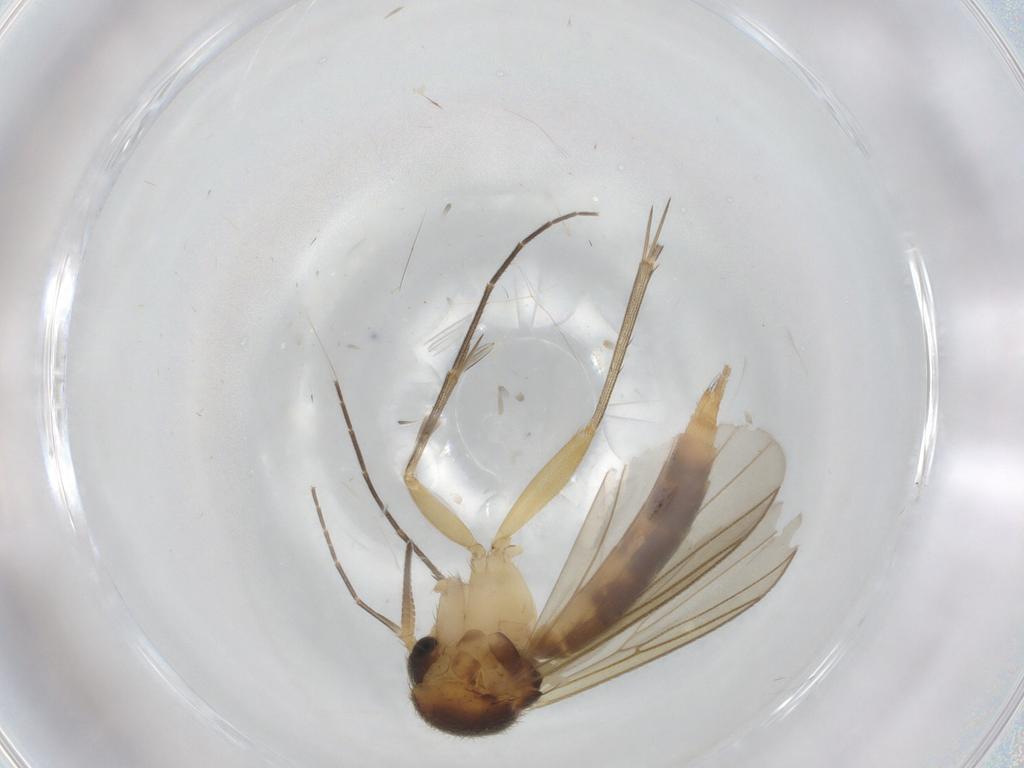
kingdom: Animalia
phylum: Arthropoda
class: Insecta
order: Diptera
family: Mycetophilidae
